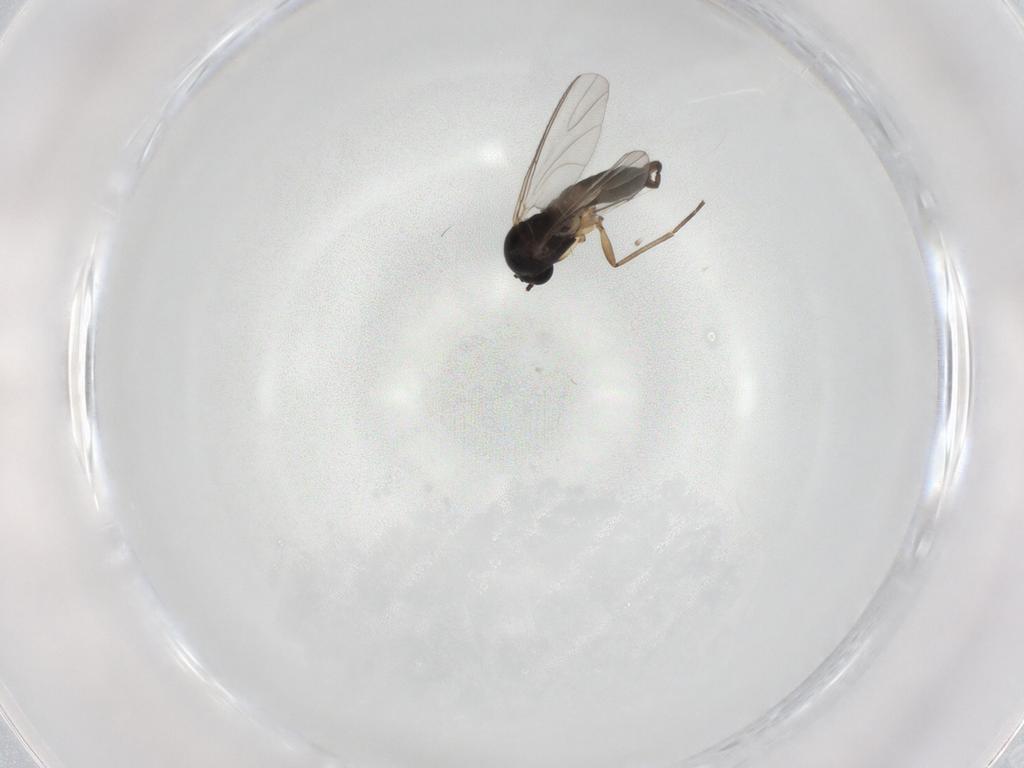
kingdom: Animalia
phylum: Arthropoda
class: Insecta
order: Diptera
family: Sciaridae
